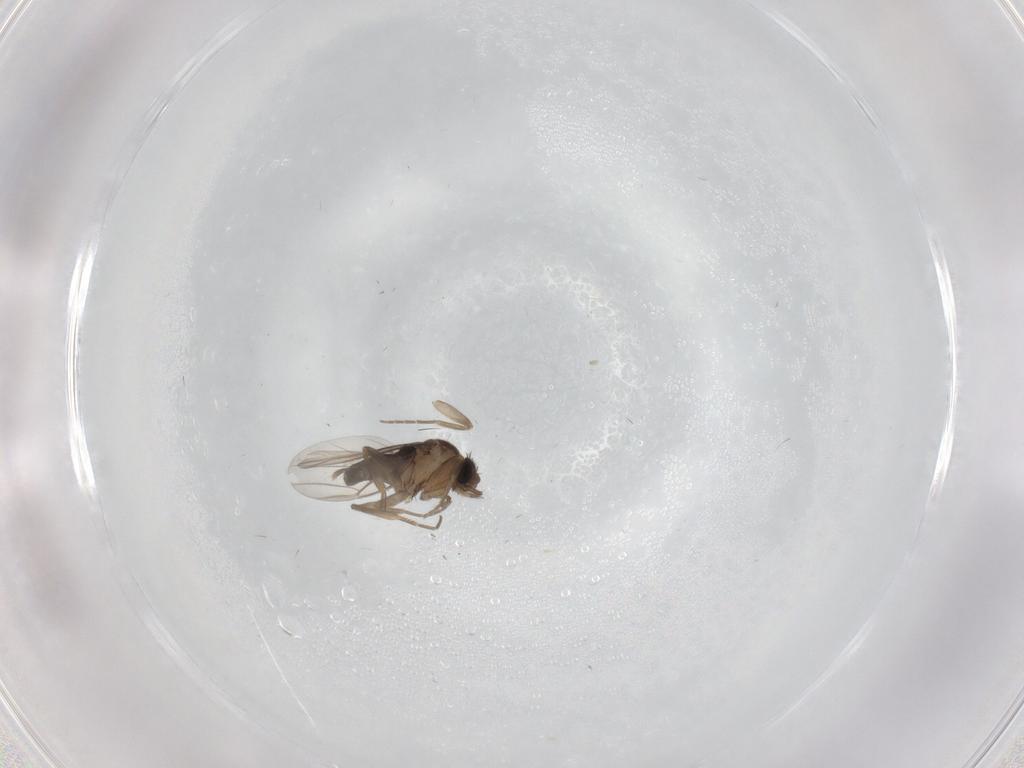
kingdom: Animalia
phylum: Arthropoda
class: Insecta
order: Diptera
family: Phoridae
